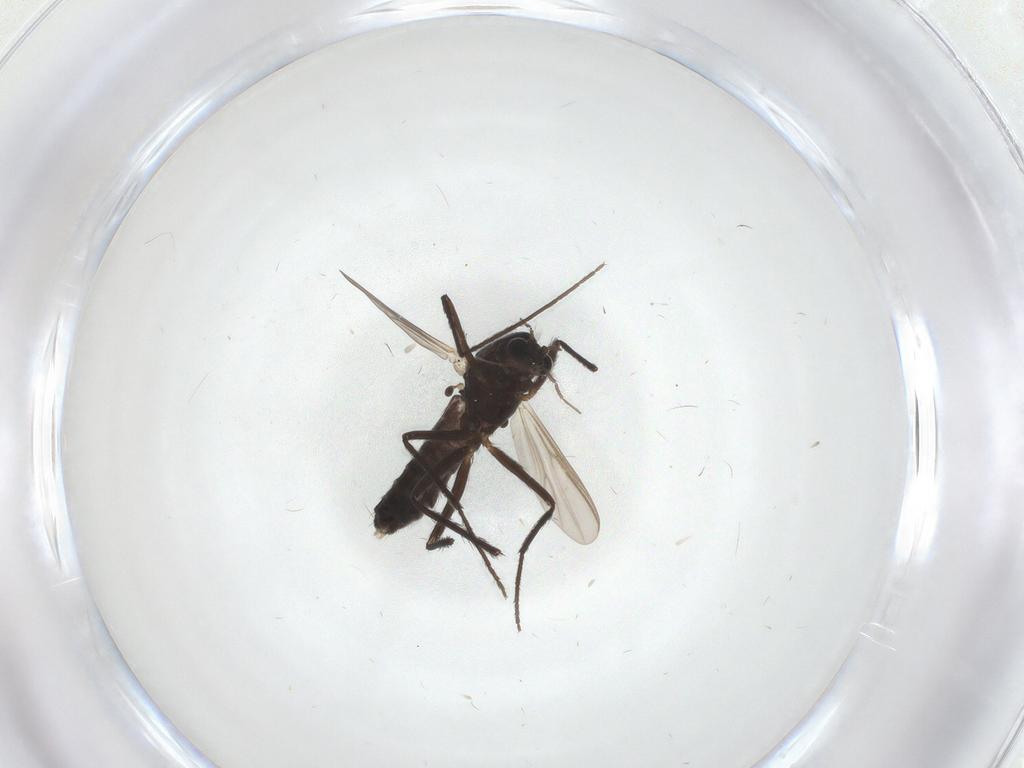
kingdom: Animalia
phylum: Arthropoda
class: Insecta
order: Diptera
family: Chironomidae
